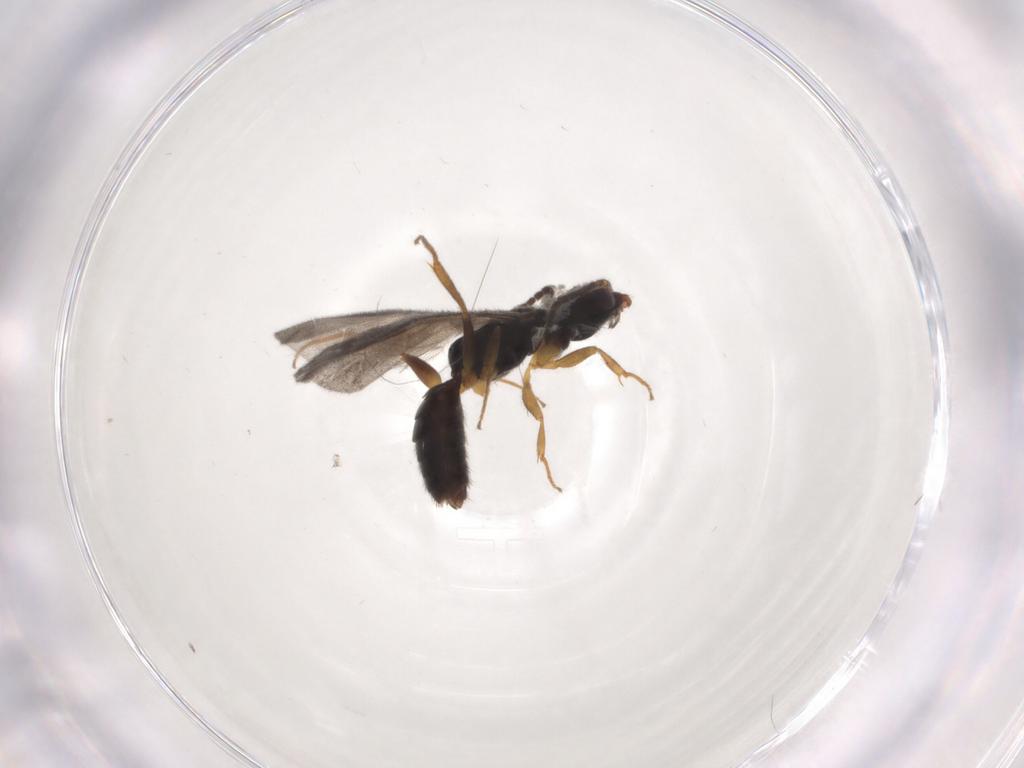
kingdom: Animalia
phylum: Arthropoda
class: Insecta
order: Hymenoptera
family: Bethylidae
